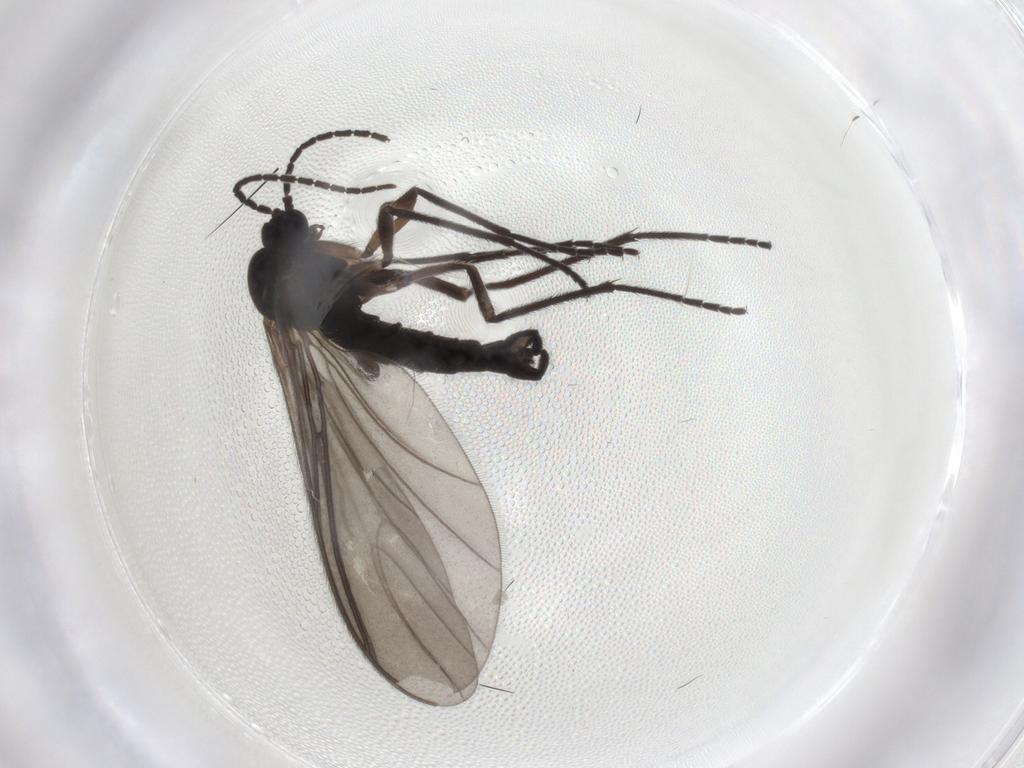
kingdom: Animalia
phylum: Arthropoda
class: Insecta
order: Diptera
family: Sciaridae
